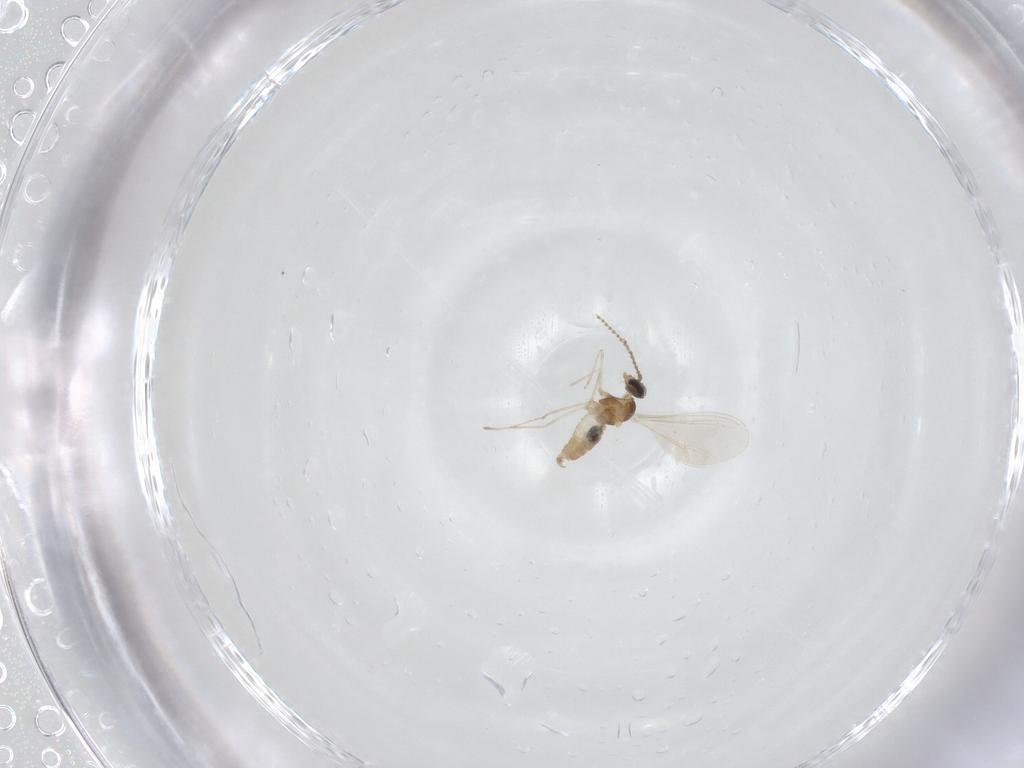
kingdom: Animalia
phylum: Arthropoda
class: Insecta
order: Diptera
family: Cecidomyiidae
